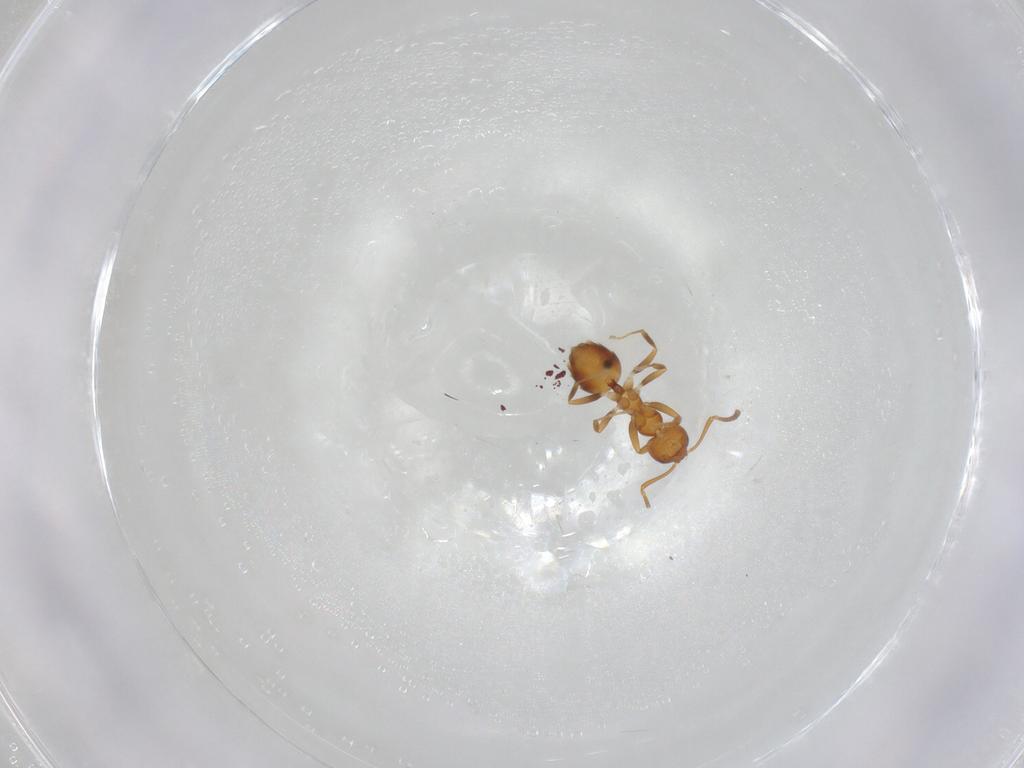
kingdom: Animalia
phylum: Arthropoda
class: Insecta
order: Hymenoptera
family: Formicidae
